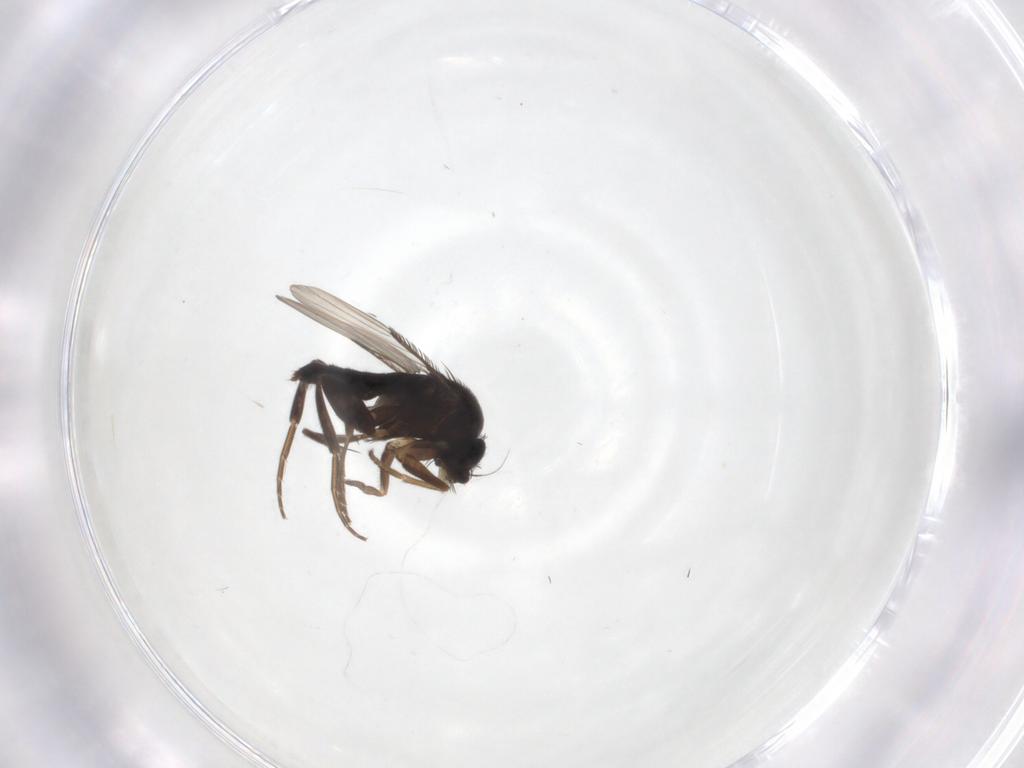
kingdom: Animalia
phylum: Arthropoda
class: Insecta
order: Diptera
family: Phoridae
